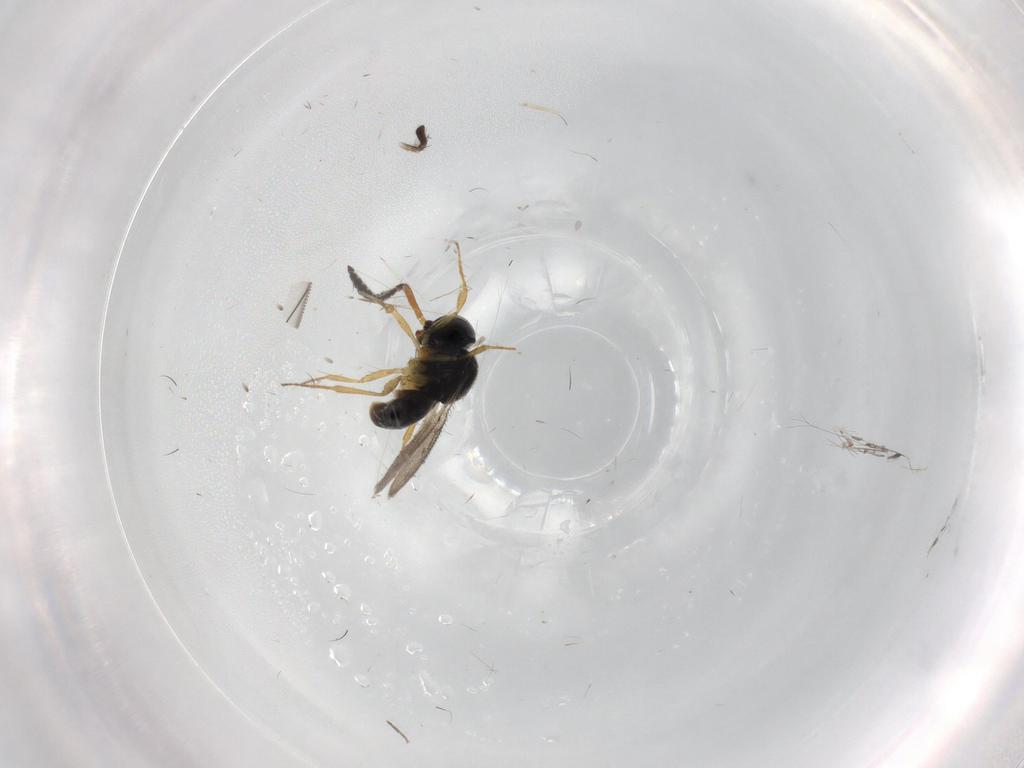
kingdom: Animalia
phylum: Arthropoda
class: Insecta
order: Hymenoptera
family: Scelionidae
